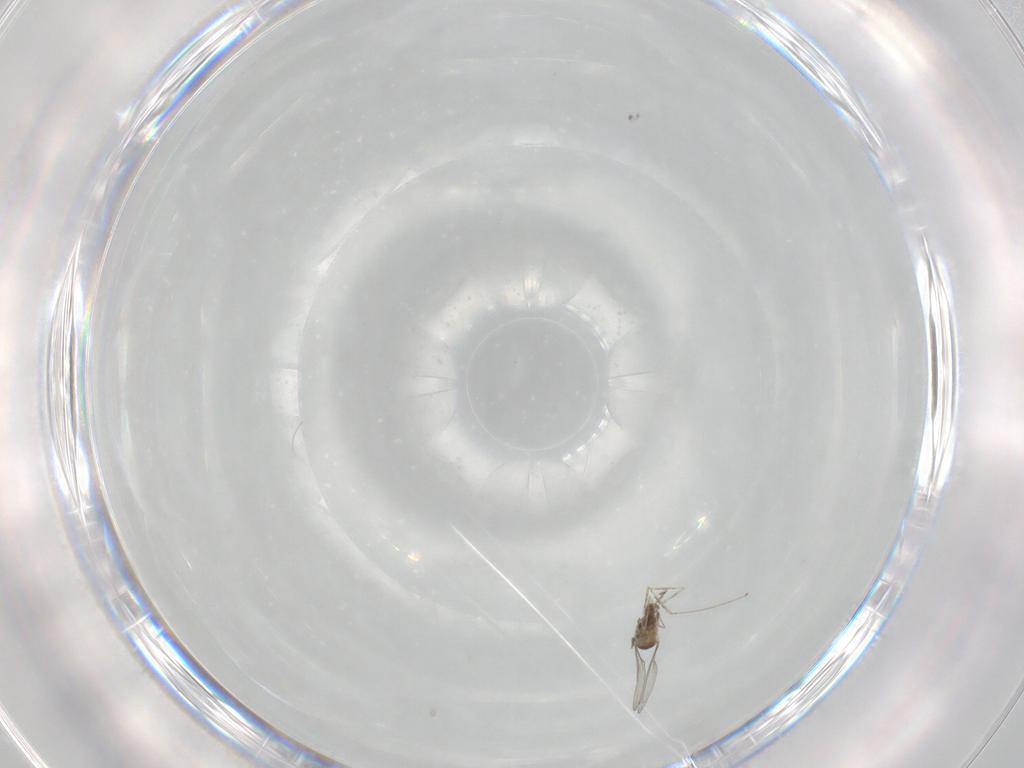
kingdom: Animalia
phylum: Arthropoda
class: Insecta
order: Diptera
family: Cecidomyiidae
